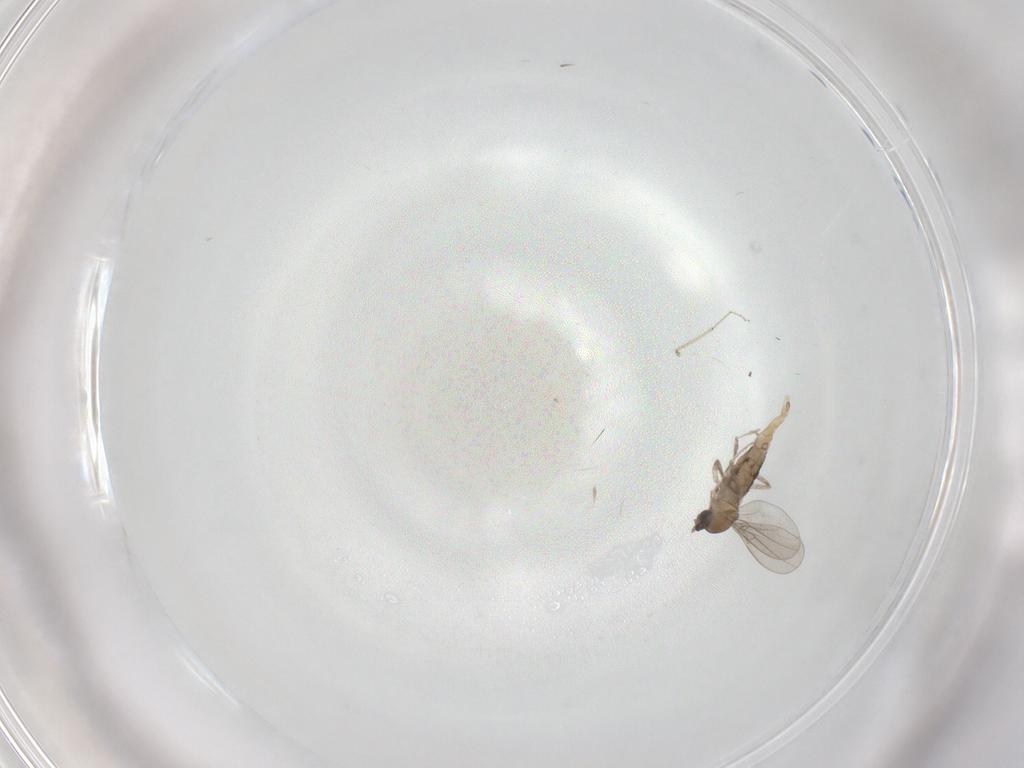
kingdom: Animalia
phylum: Arthropoda
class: Insecta
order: Diptera
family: Cecidomyiidae
